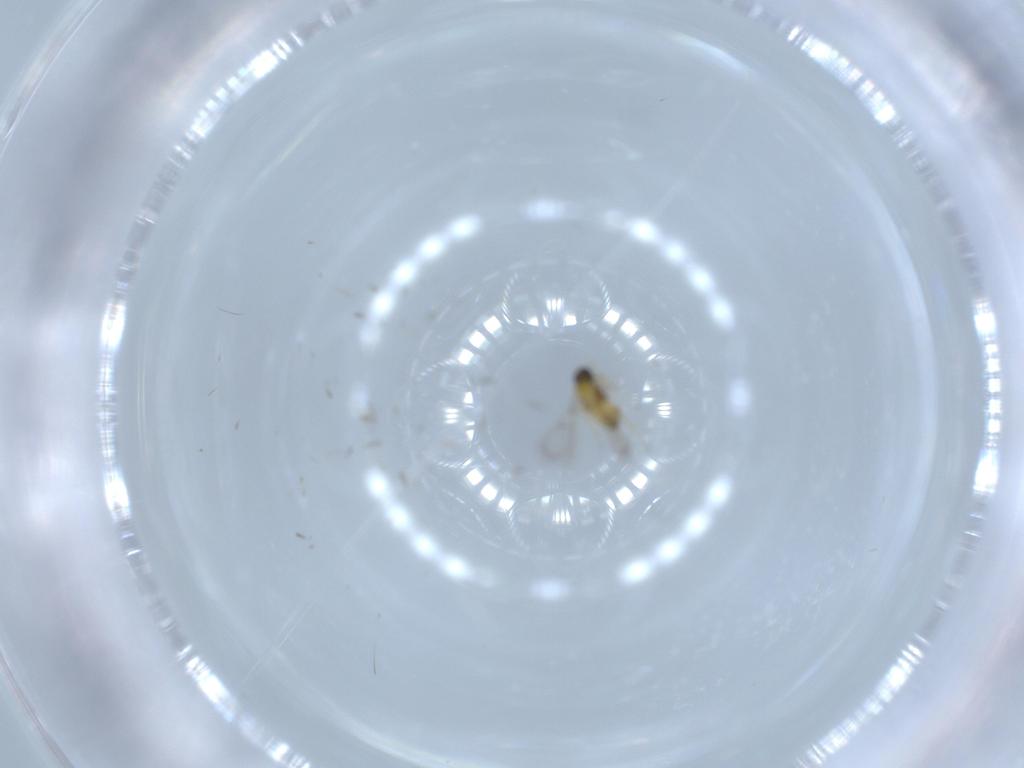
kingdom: Animalia
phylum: Arthropoda
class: Insecta
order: Hymenoptera
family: Trichogrammatidae
